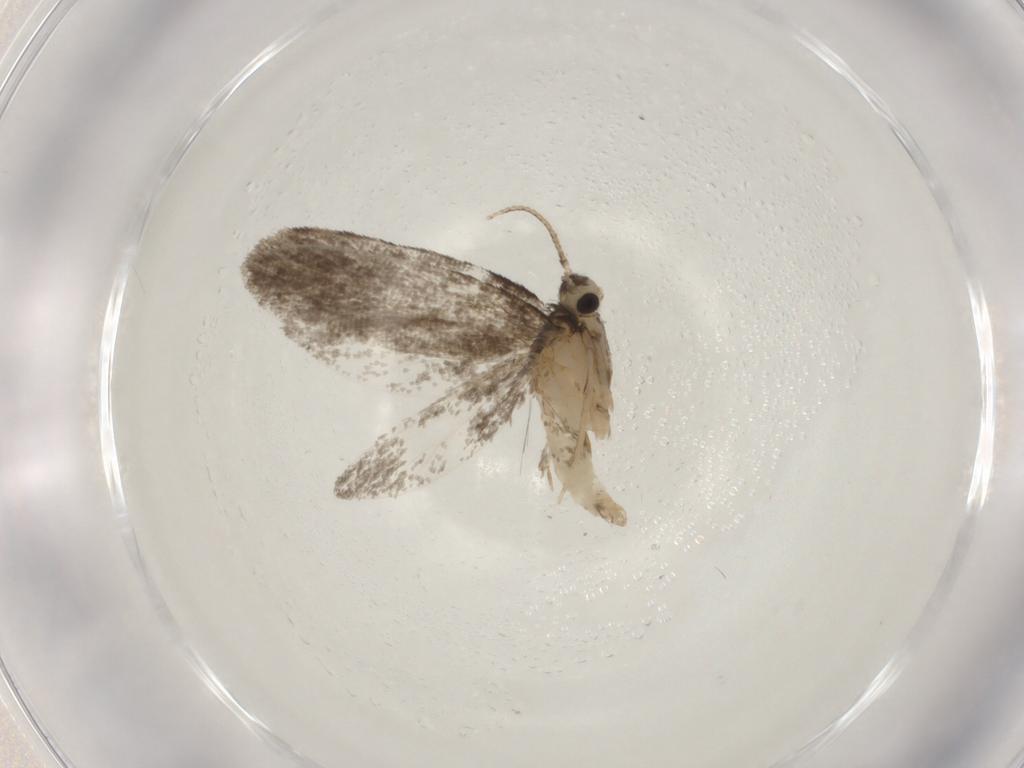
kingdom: Animalia
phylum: Arthropoda
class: Insecta
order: Lepidoptera
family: Psychidae
